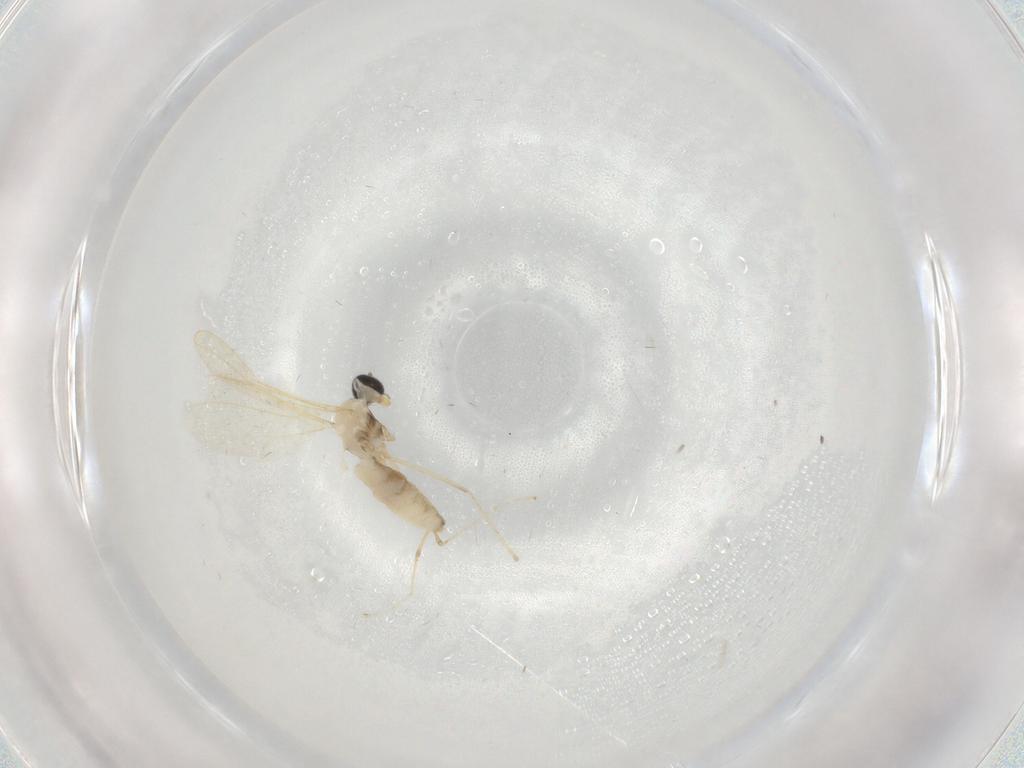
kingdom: Animalia
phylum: Arthropoda
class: Insecta
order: Diptera
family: Cecidomyiidae
